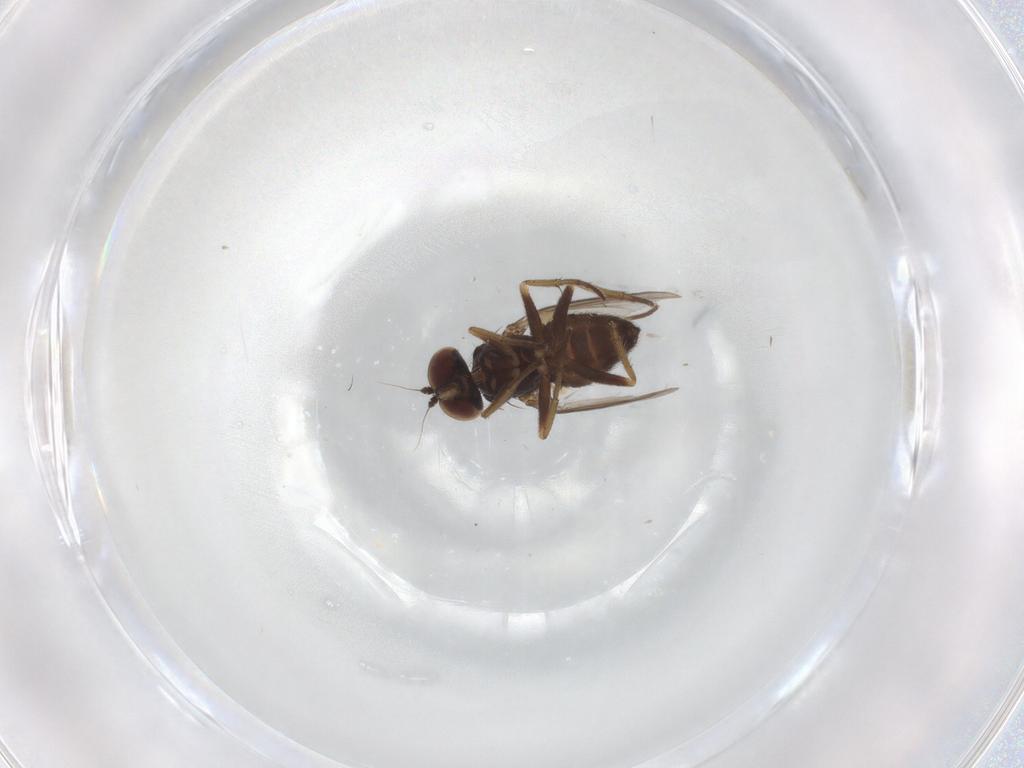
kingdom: Animalia
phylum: Arthropoda
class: Insecta
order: Diptera
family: Dolichopodidae
